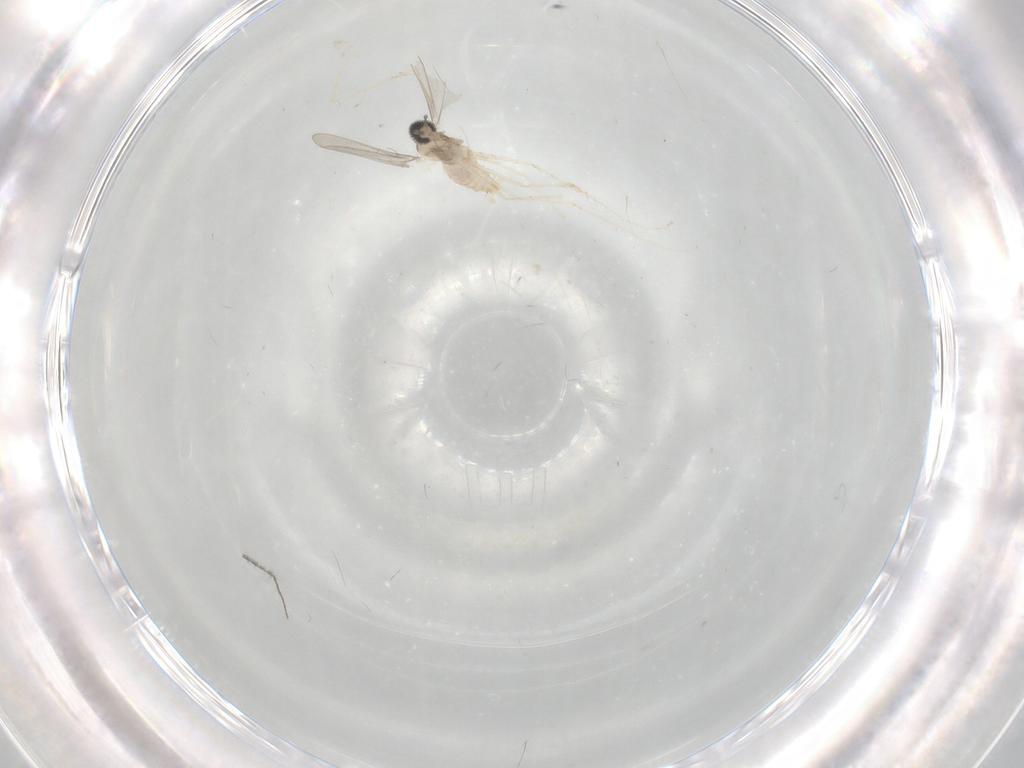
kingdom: Animalia
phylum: Arthropoda
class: Insecta
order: Diptera
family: Cecidomyiidae
